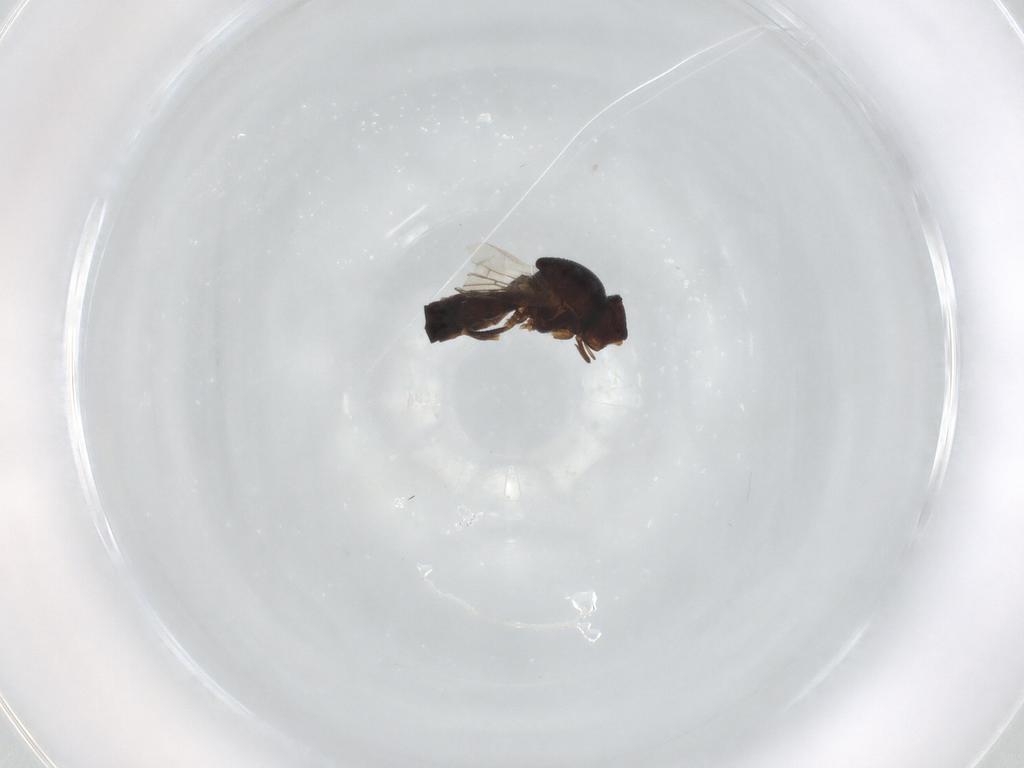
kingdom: Animalia
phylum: Arthropoda
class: Insecta
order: Diptera
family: Chloropidae
